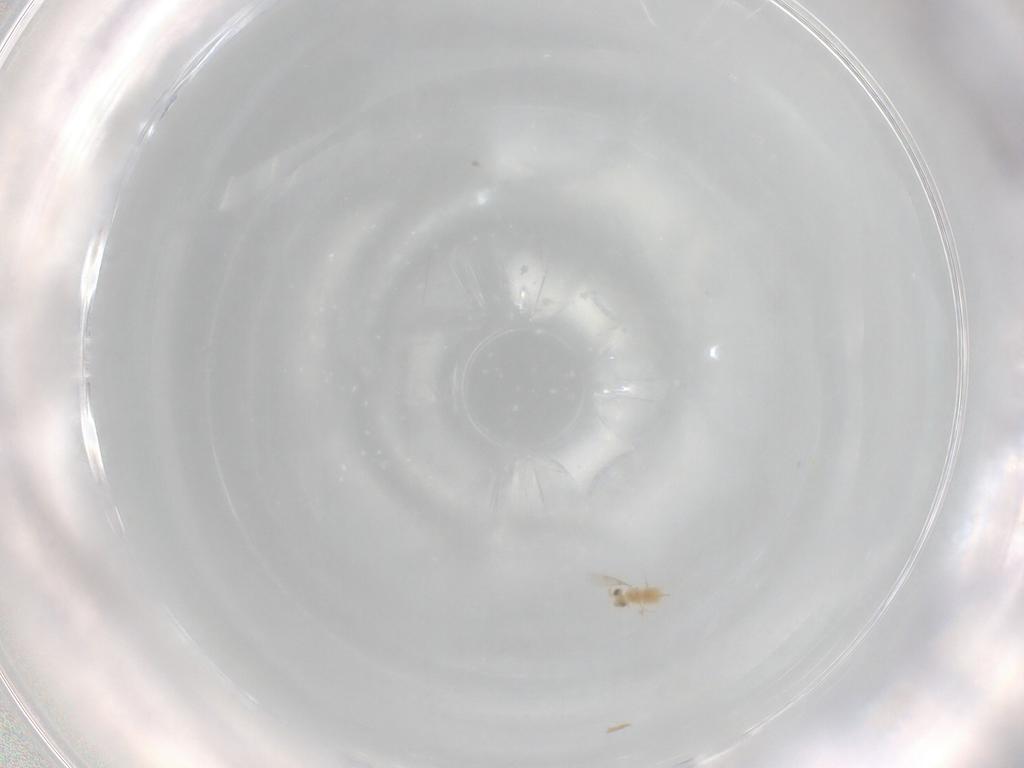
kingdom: Animalia
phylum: Arthropoda
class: Insecta
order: Hymenoptera
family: Aphelinidae
